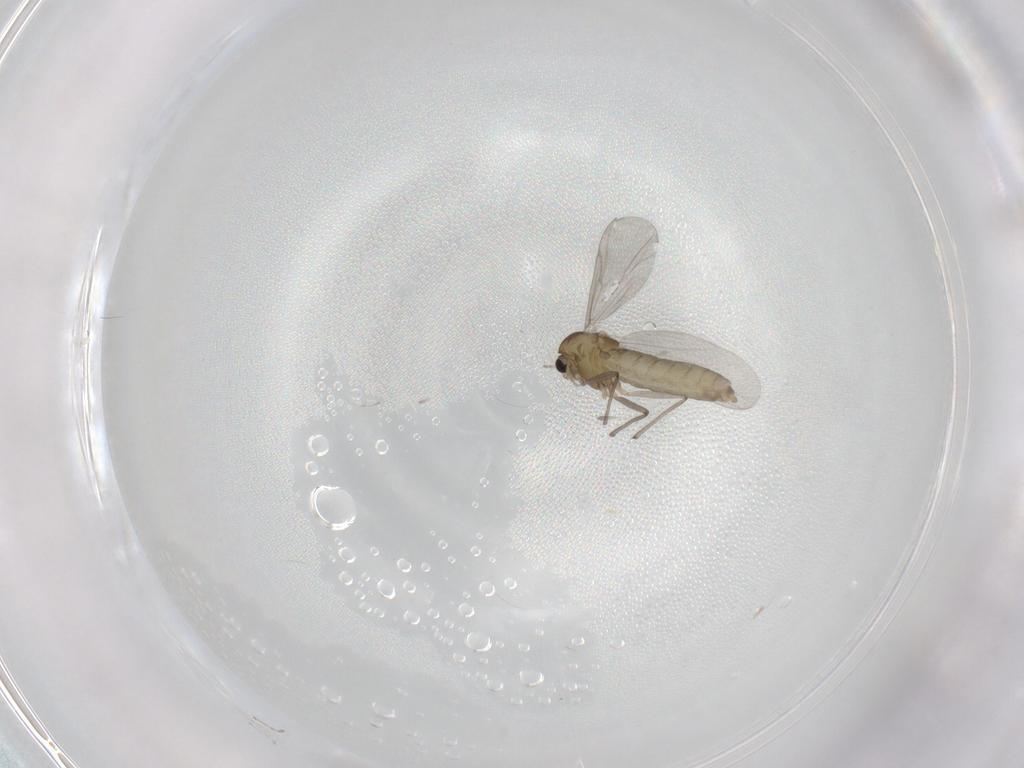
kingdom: Animalia
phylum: Arthropoda
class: Insecta
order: Diptera
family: Chironomidae
